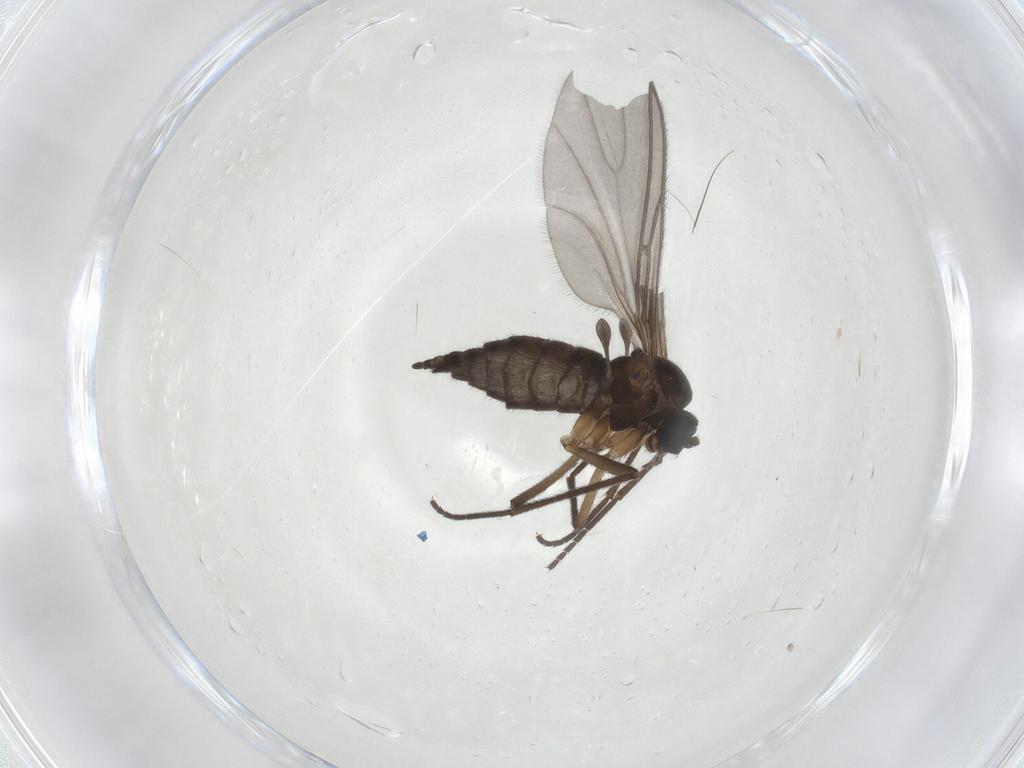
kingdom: Animalia
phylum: Arthropoda
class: Insecta
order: Diptera
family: Sciaridae
